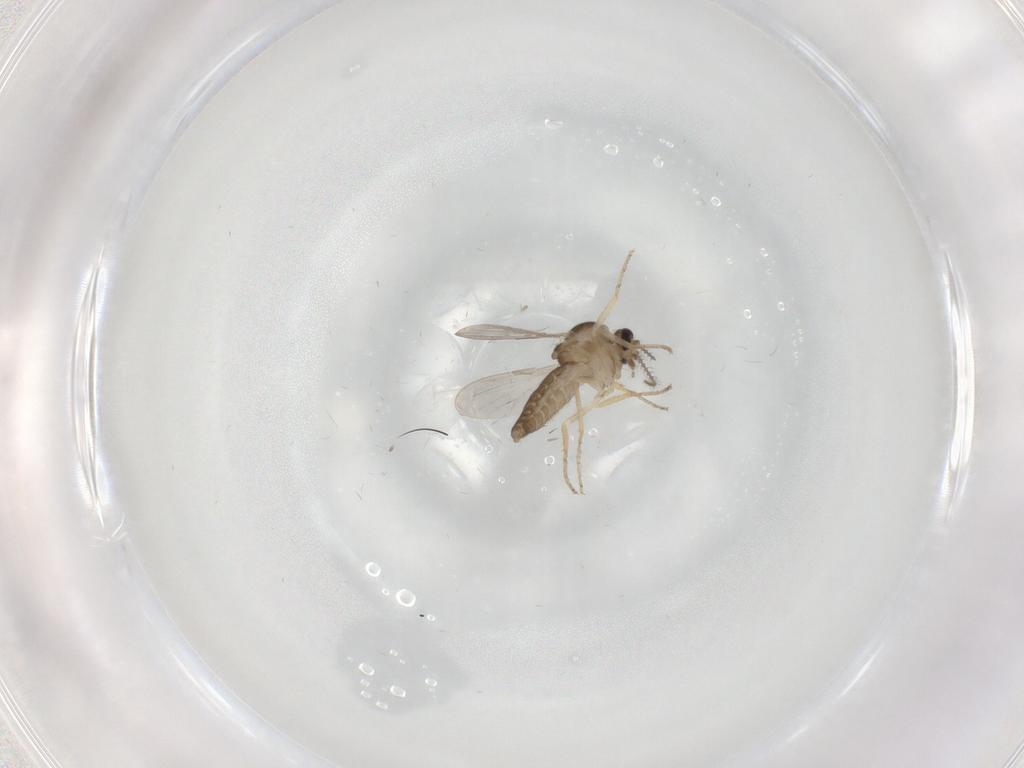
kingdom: Animalia
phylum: Arthropoda
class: Insecta
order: Diptera
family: Ceratopogonidae
